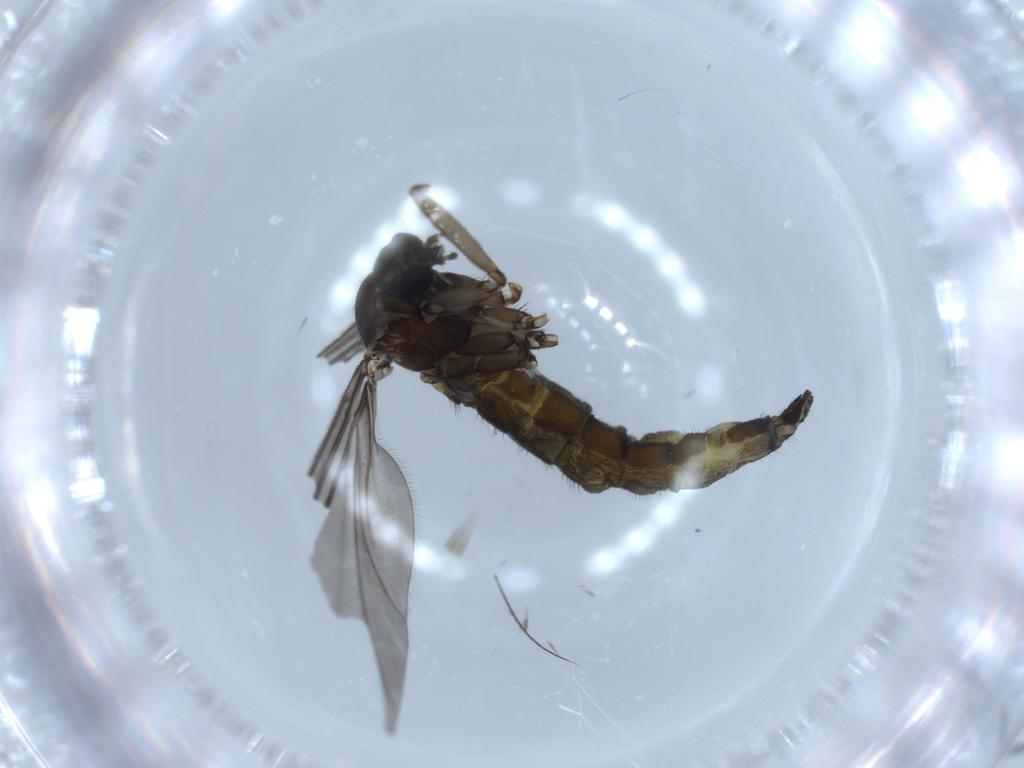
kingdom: Animalia
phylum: Arthropoda
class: Insecta
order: Diptera
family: Sciaridae
